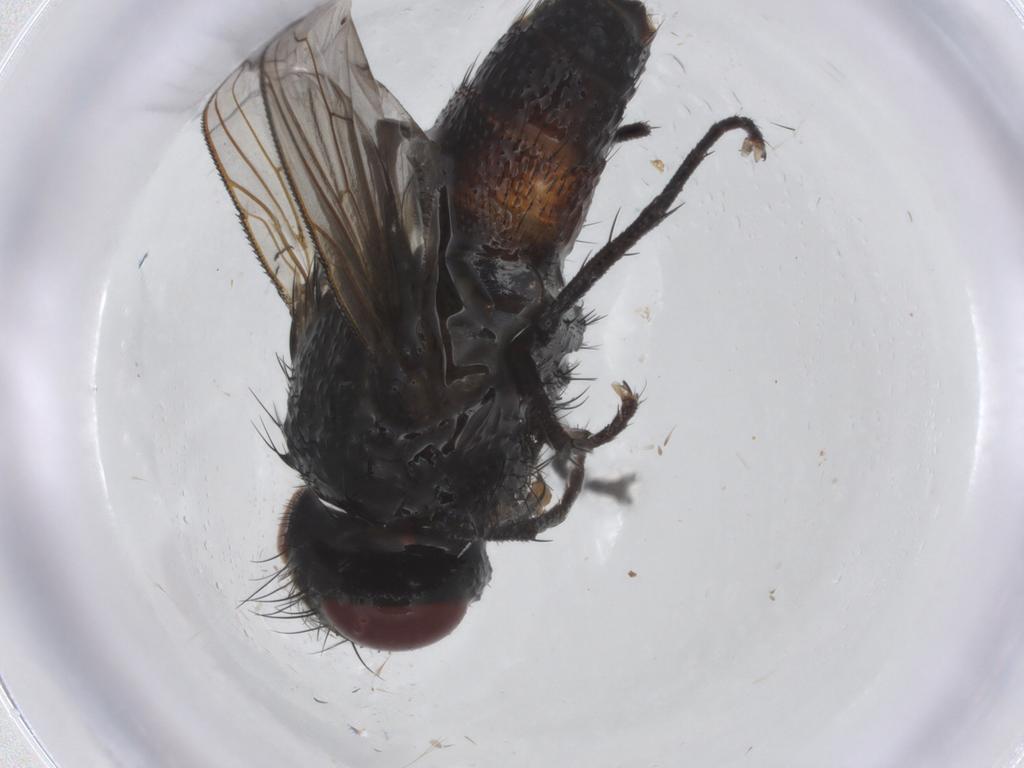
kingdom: Animalia
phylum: Arthropoda
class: Insecta
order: Diptera
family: Sarcophagidae
